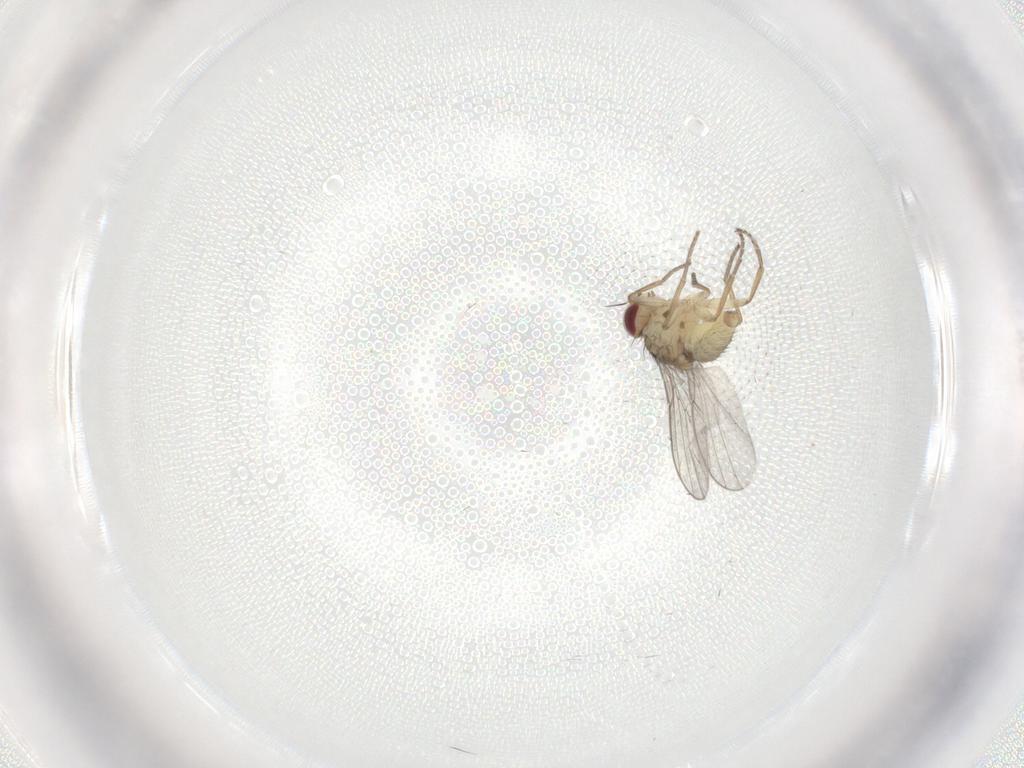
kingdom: Animalia
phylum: Arthropoda
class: Insecta
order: Diptera
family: Agromyzidae
